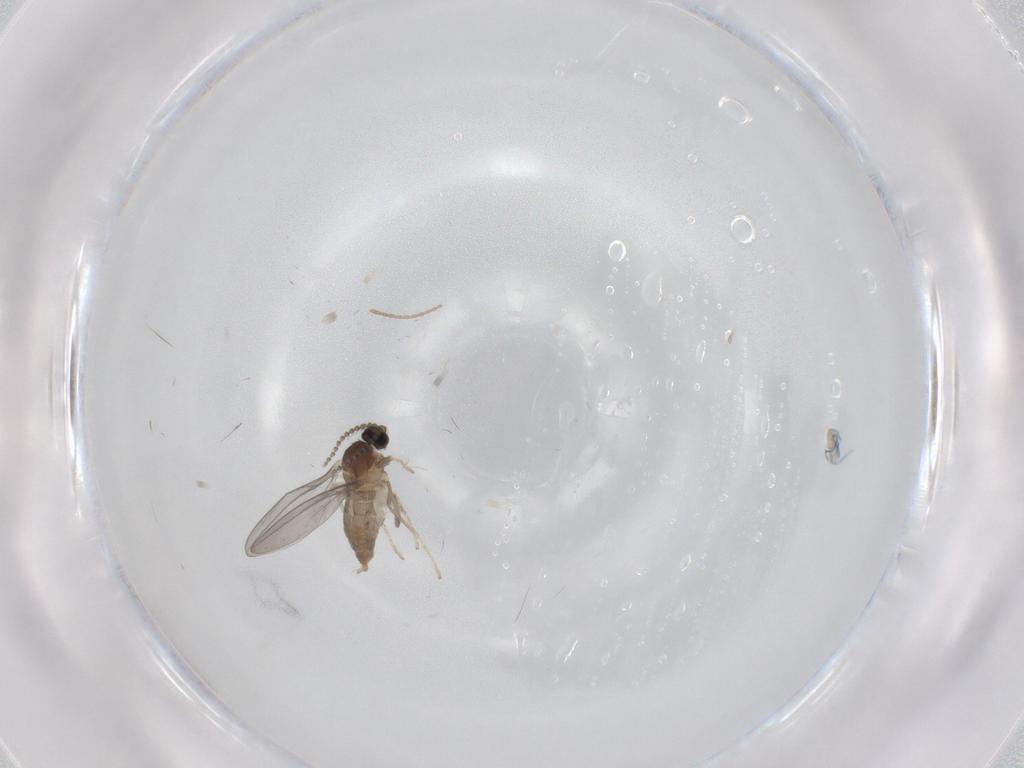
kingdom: Animalia
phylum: Arthropoda
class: Insecta
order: Diptera
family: Cecidomyiidae
